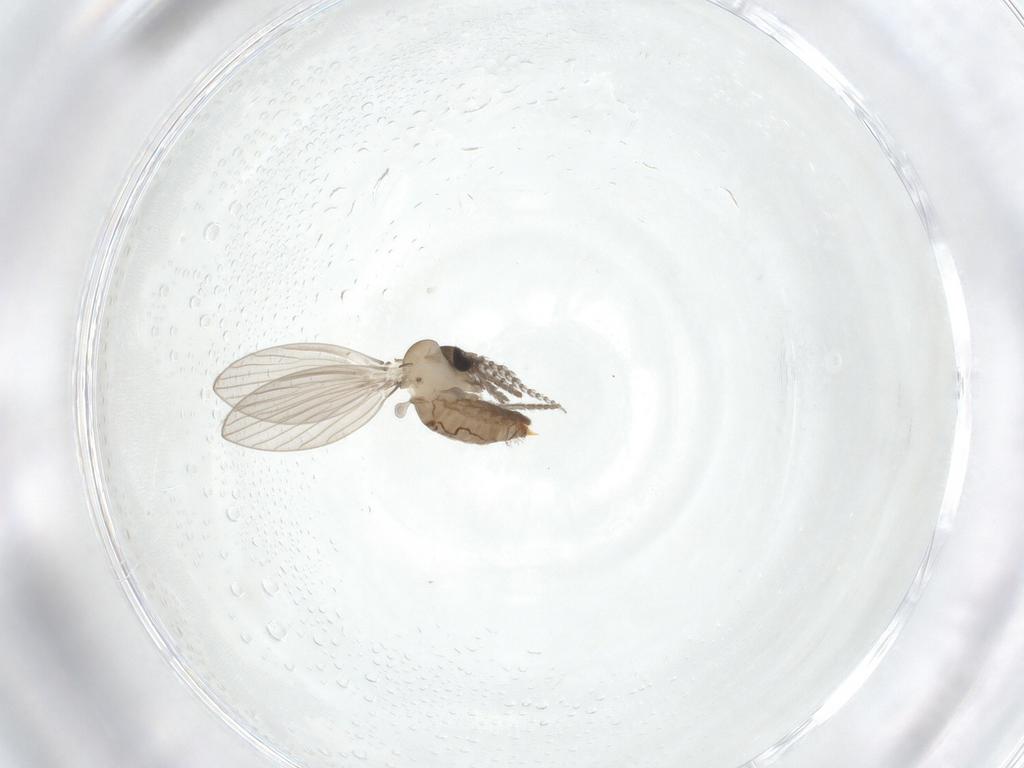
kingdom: Animalia
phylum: Arthropoda
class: Insecta
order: Diptera
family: Psychodidae
